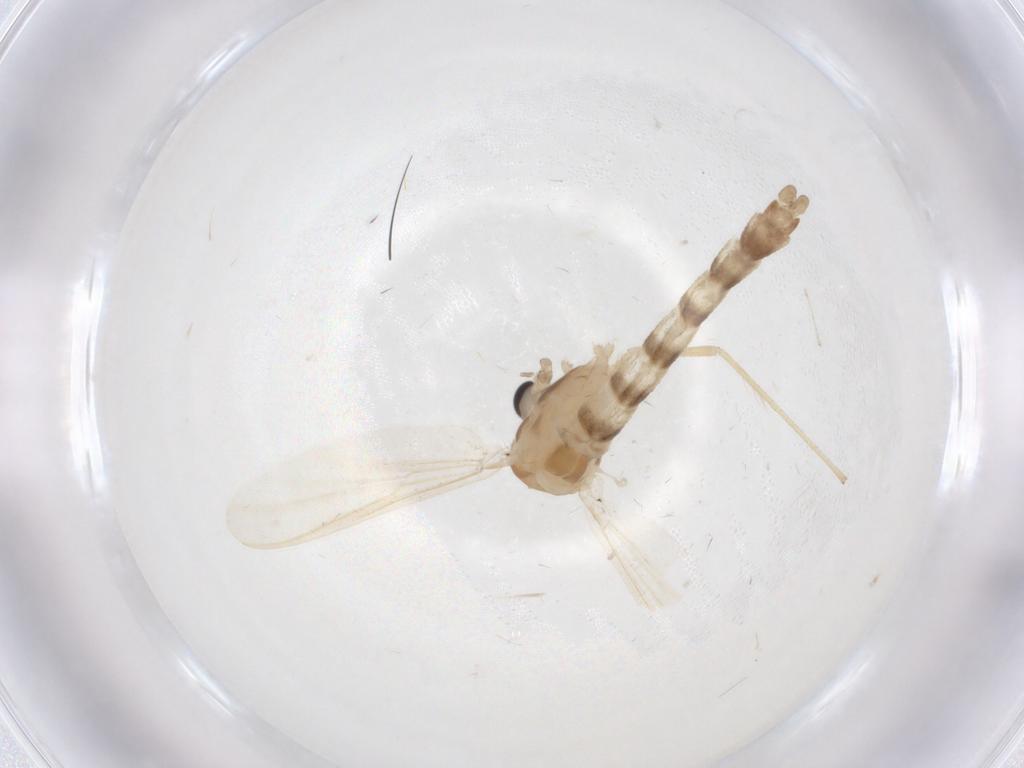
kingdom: Animalia
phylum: Arthropoda
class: Insecta
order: Diptera
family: Chironomidae
